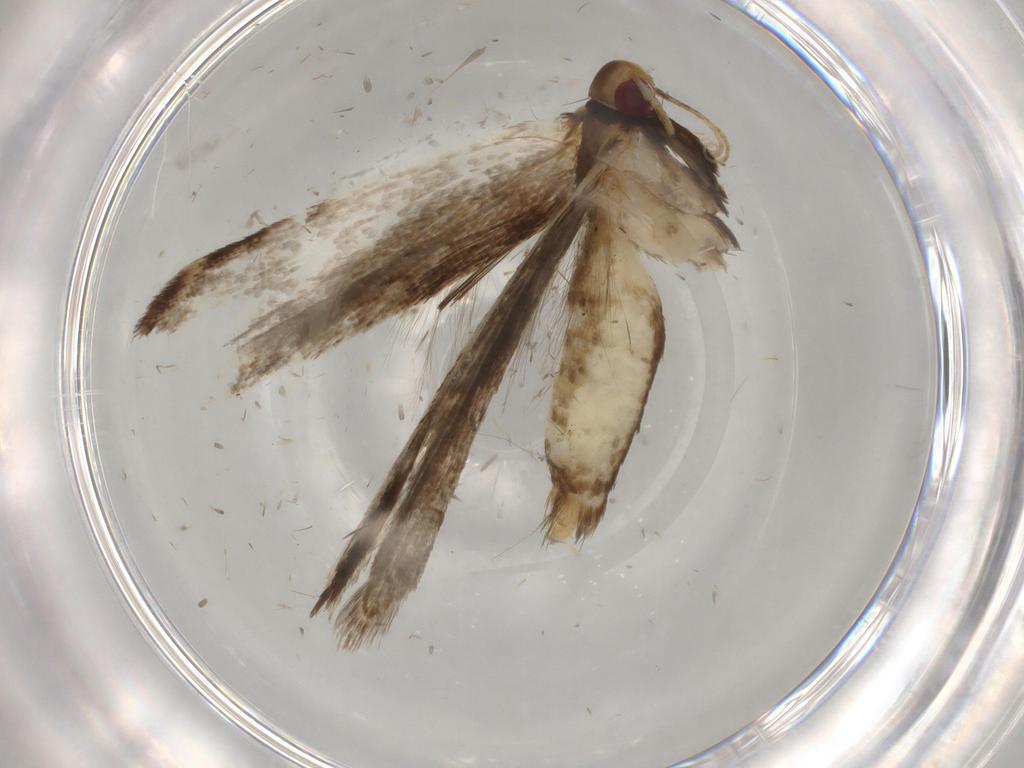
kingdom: Animalia
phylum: Arthropoda
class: Insecta
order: Lepidoptera
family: Gelechiidae
